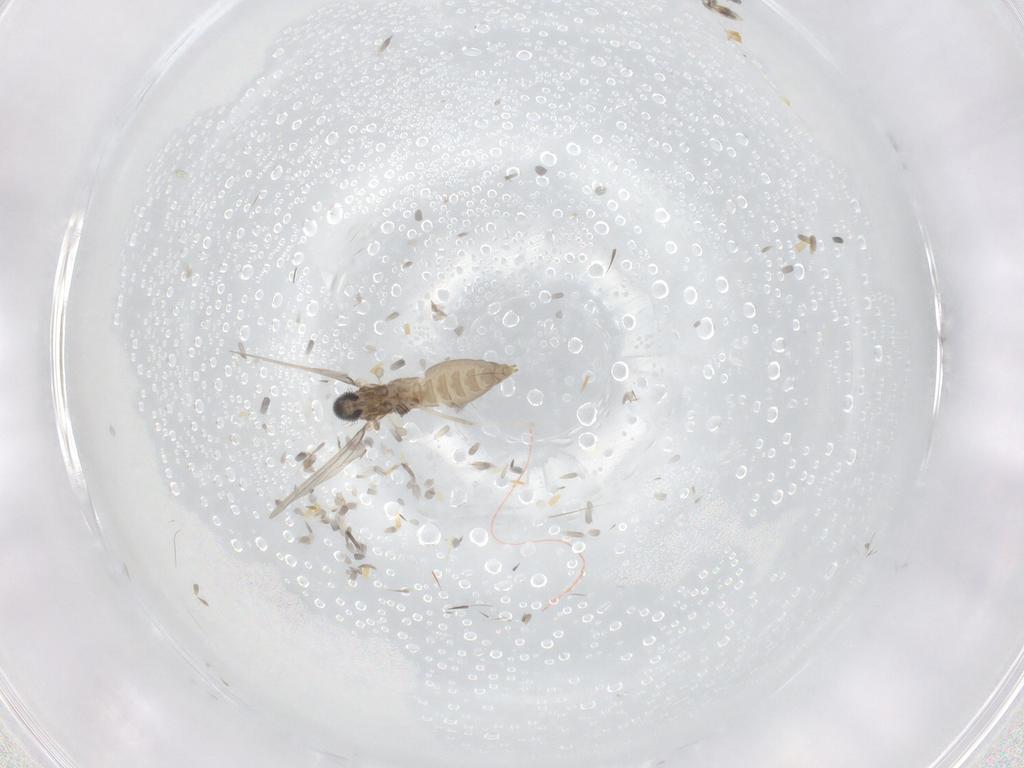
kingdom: Animalia
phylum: Arthropoda
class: Insecta
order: Diptera
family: Cecidomyiidae
